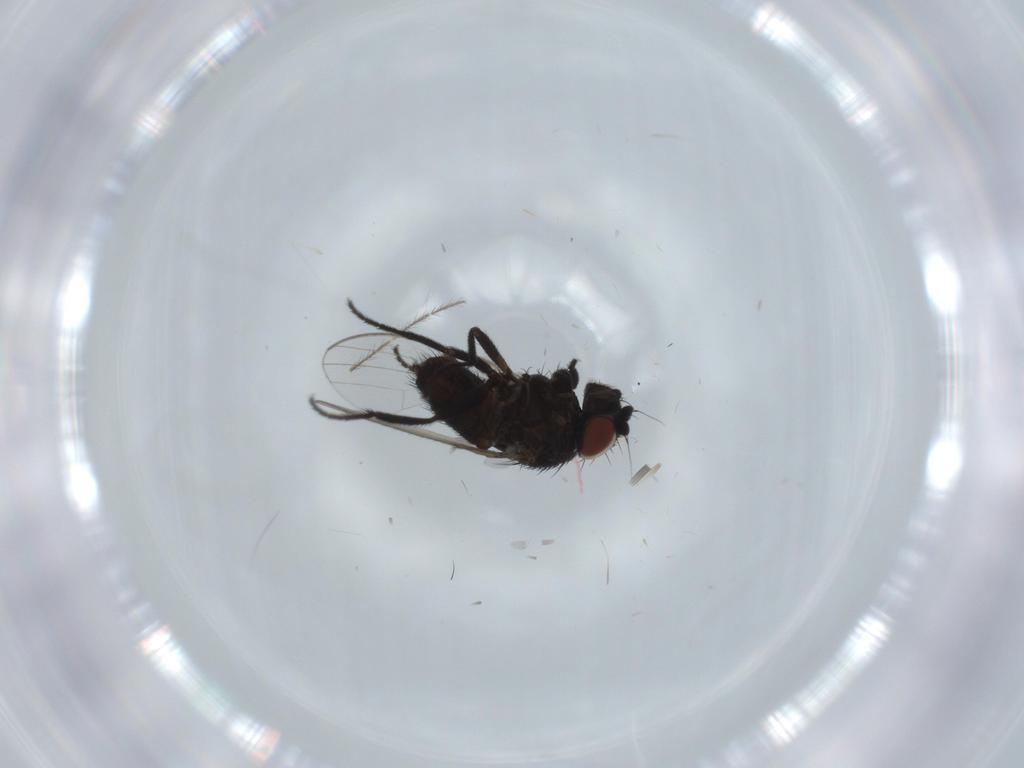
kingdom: Animalia
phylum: Arthropoda
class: Insecta
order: Diptera
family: Milichiidae
